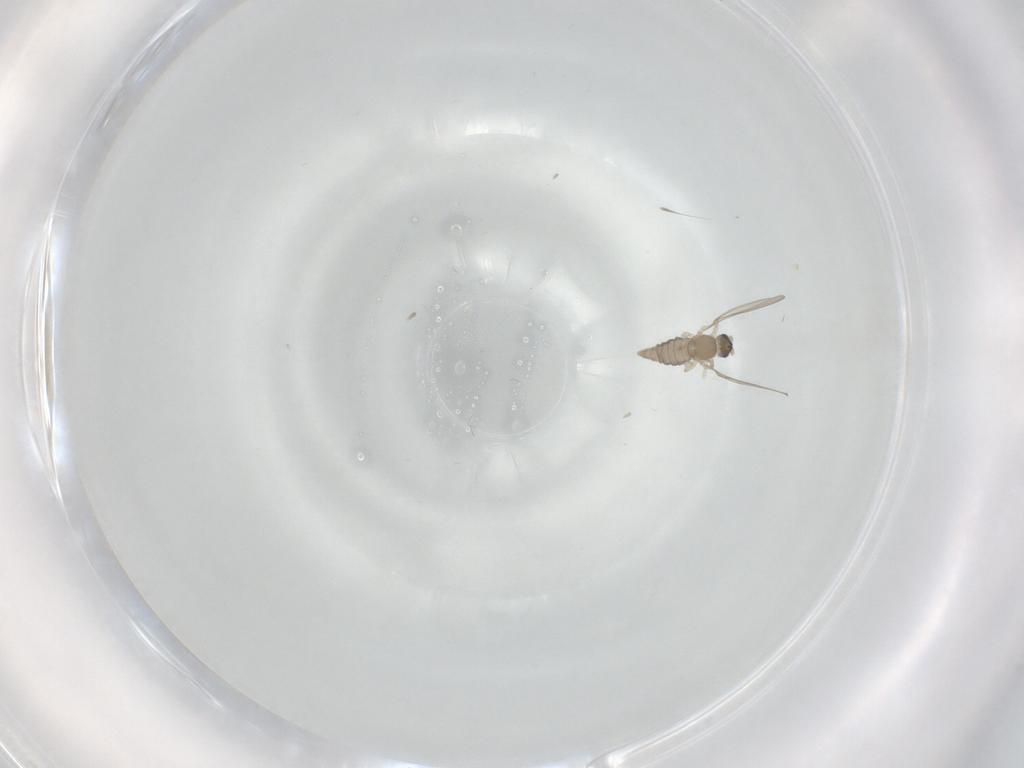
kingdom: Animalia
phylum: Arthropoda
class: Insecta
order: Diptera
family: Cecidomyiidae
